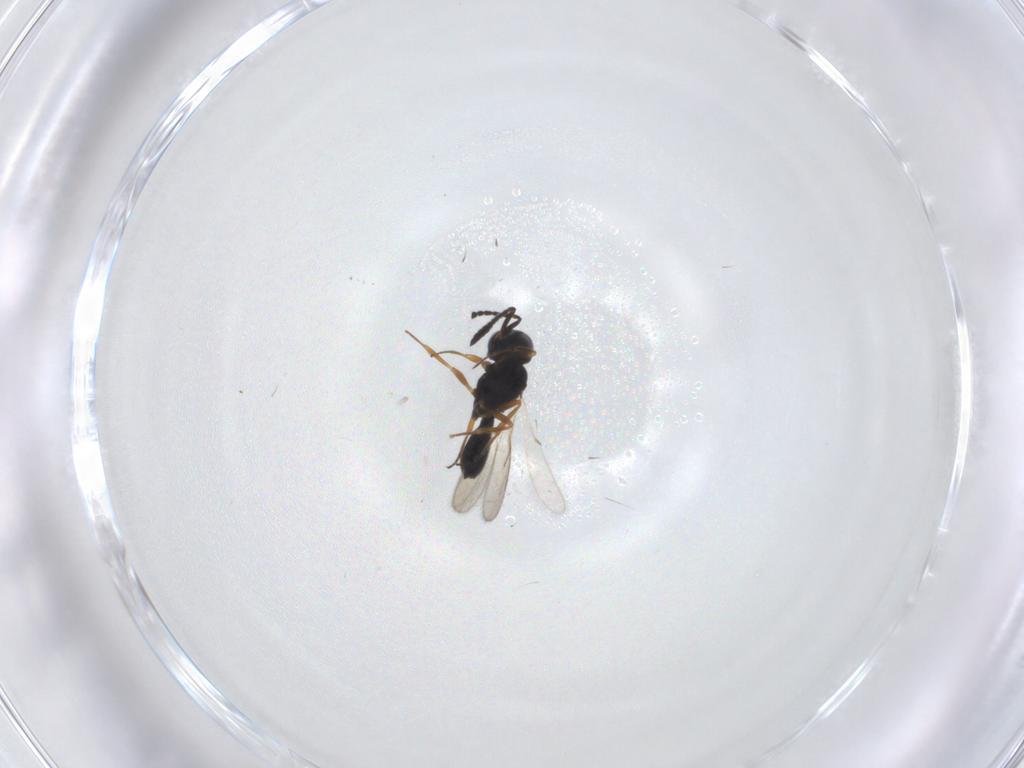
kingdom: Animalia
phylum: Arthropoda
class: Insecta
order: Hymenoptera
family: Scelionidae
